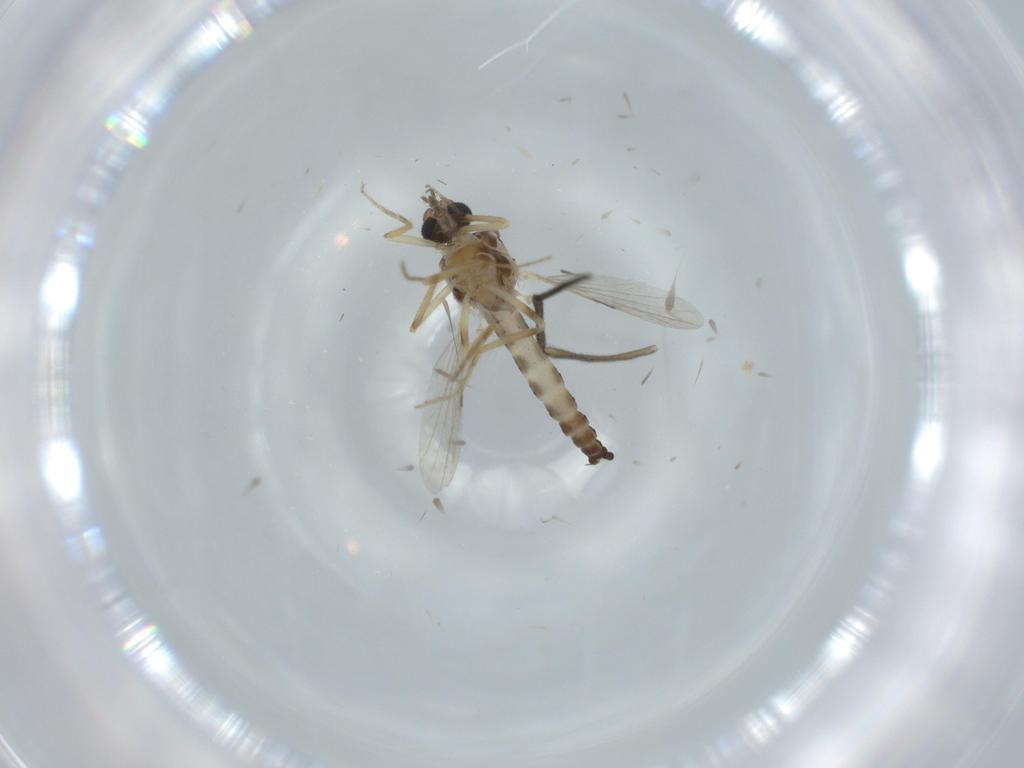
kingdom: Animalia
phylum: Arthropoda
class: Insecta
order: Diptera
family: Ceratopogonidae
